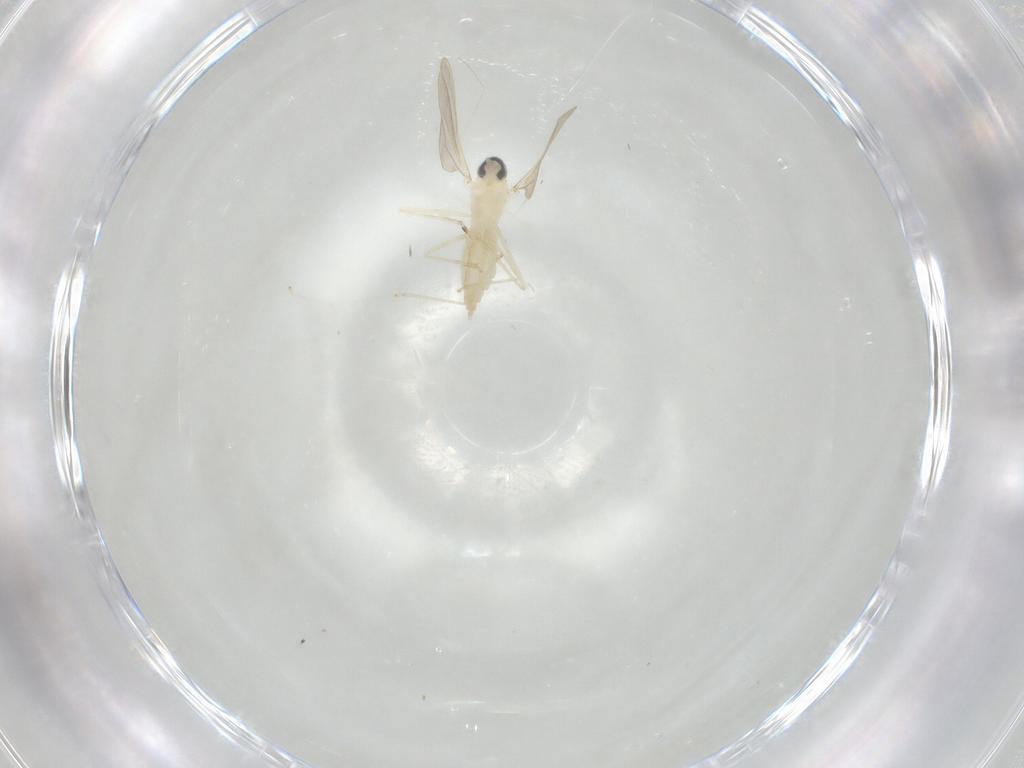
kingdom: Animalia
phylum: Arthropoda
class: Insecta
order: Diptera
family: Cecidomyiidae
